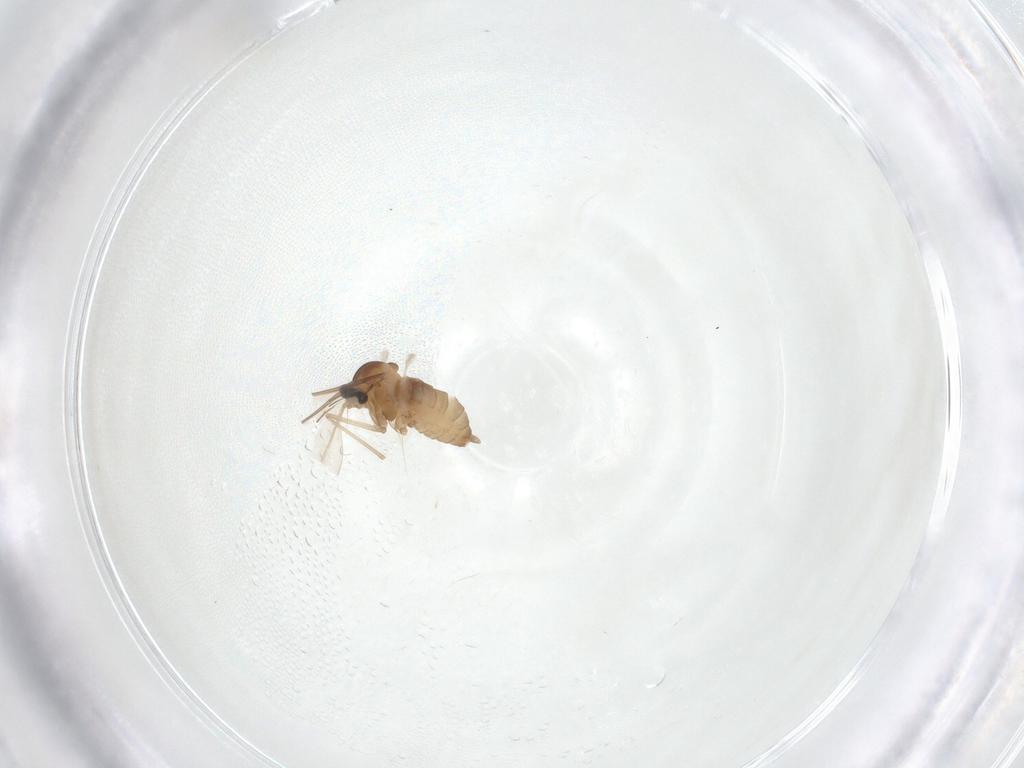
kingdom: Animalia
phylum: Arthropoda
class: Insecta
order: Diptera
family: Cecidomyiidae
